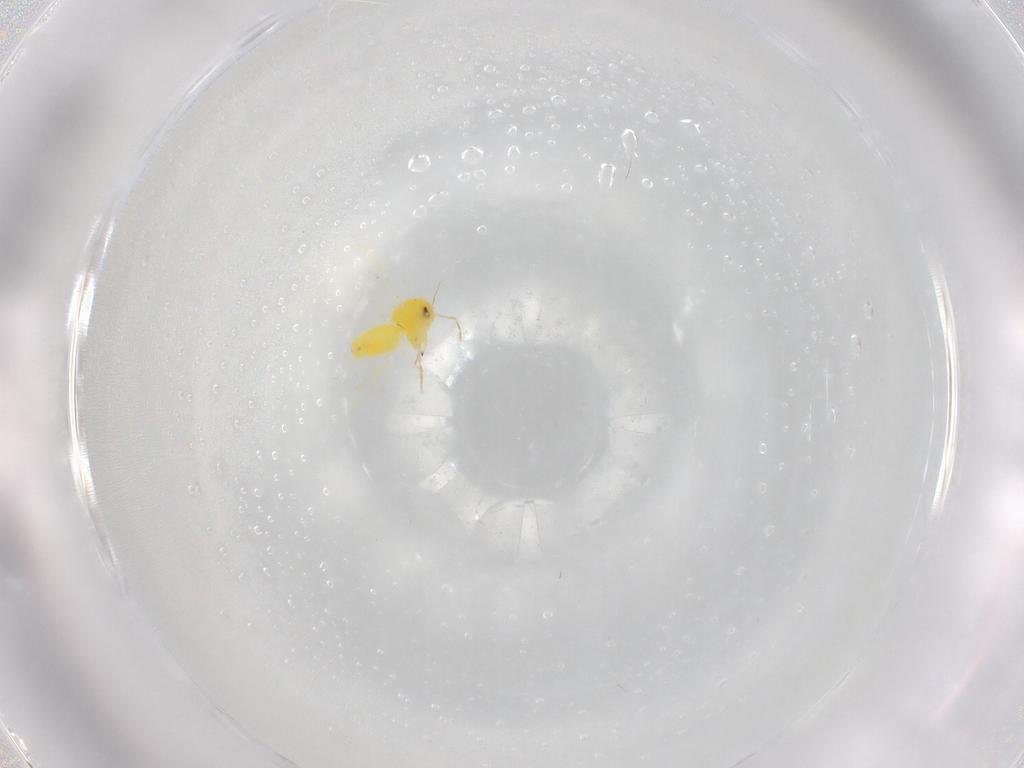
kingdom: Animalia
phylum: Arthropoda
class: Insecta
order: Hemiptera
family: Aleyrodidae
